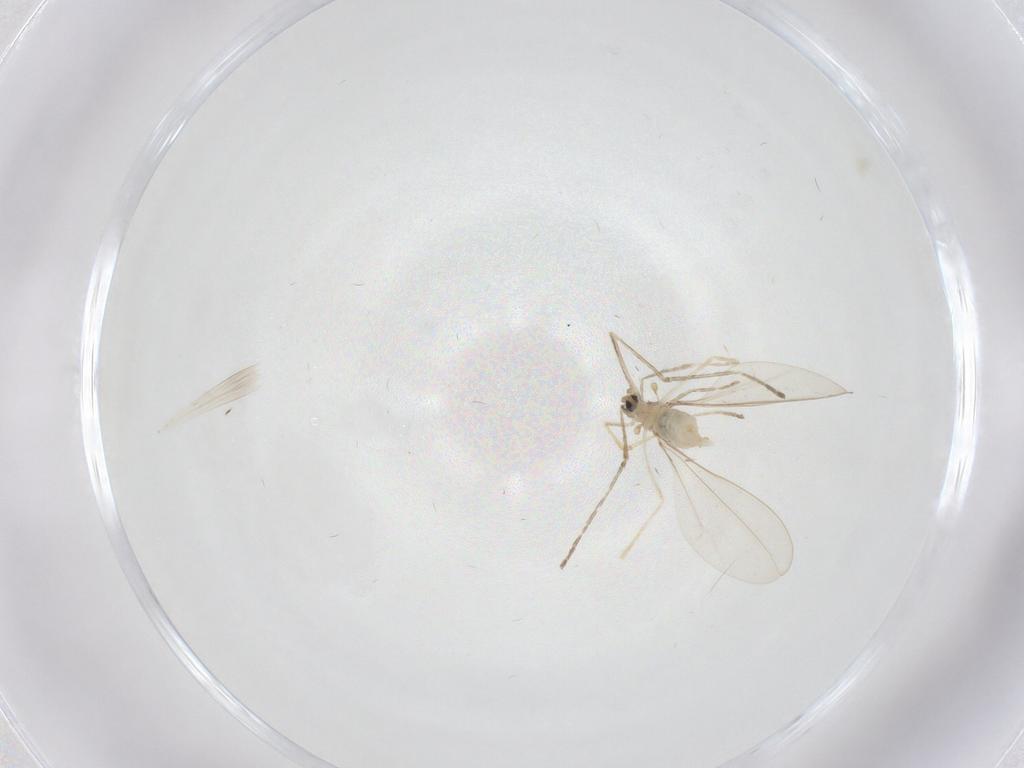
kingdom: Animalia
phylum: Arthropoda
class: Insecta
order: Diptera
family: Cecidomyiidae
